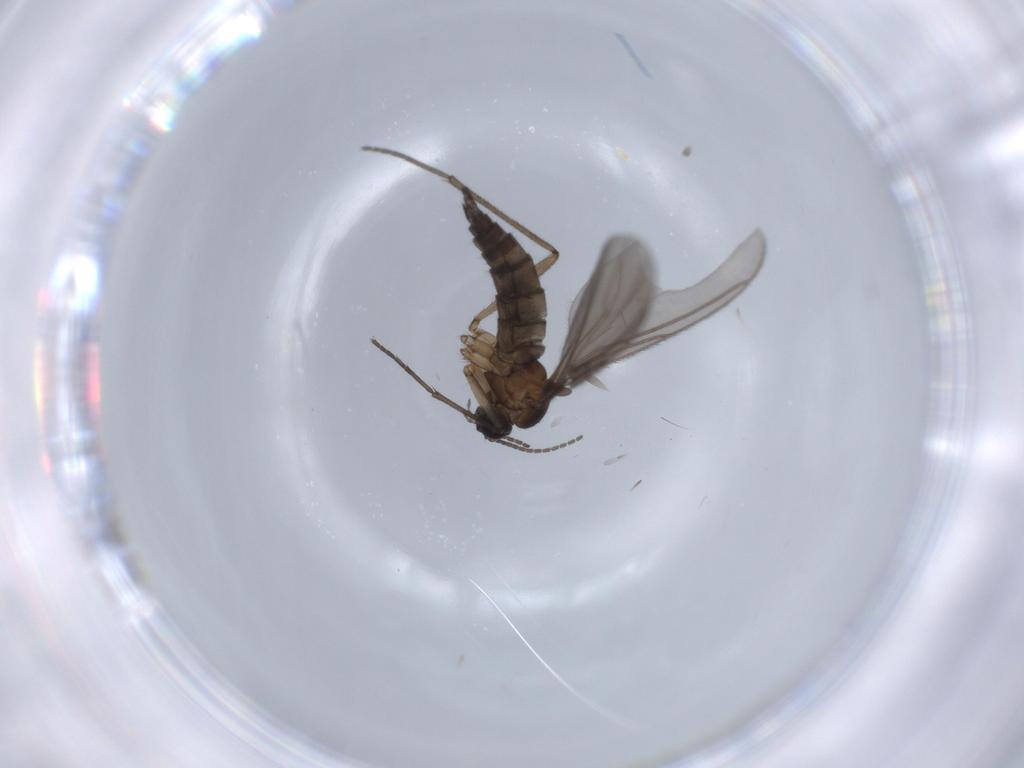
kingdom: Animalia
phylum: Arthropoda
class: Insecta
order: Diptera
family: Sciaridae
